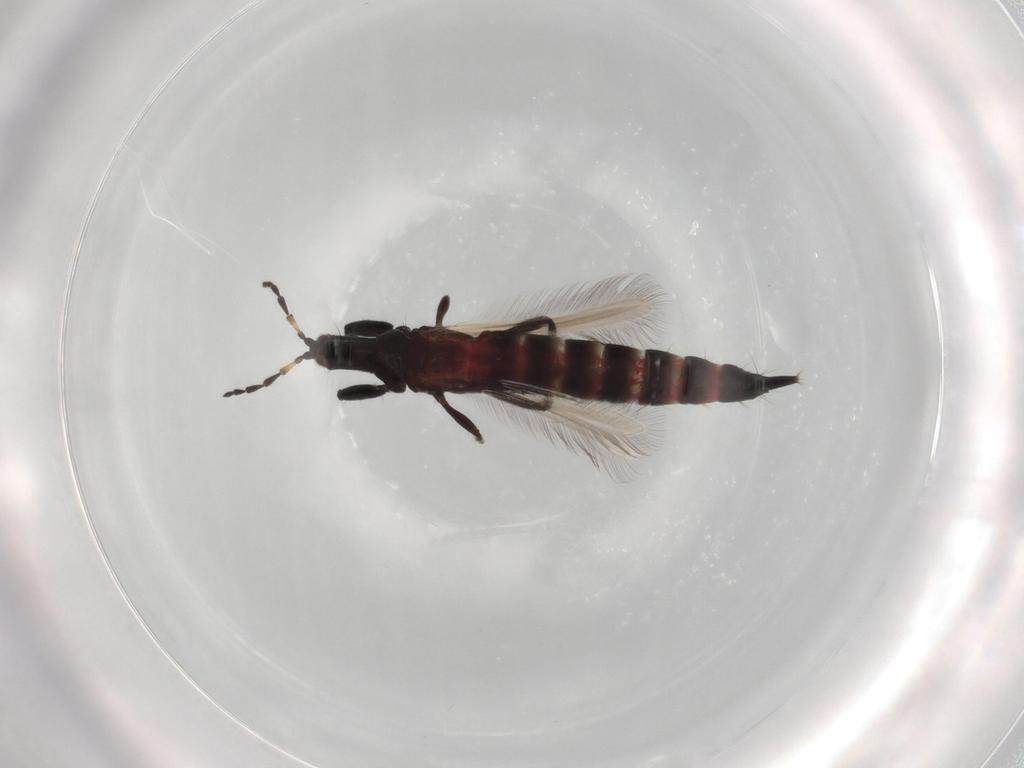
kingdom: Animalia
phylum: Arthropoda
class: Insecta
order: Thysanoptera
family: Phlaeothripidae
